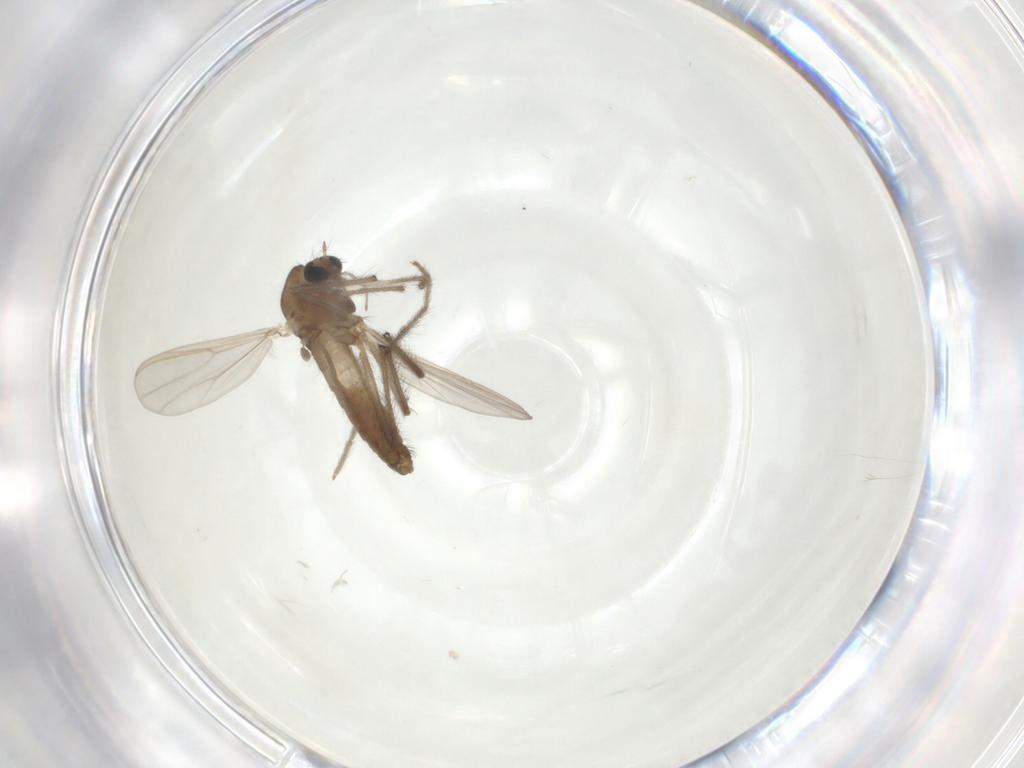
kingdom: Animalia
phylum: Arthropoda
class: Insecta
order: Diptera
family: Chironomidae
